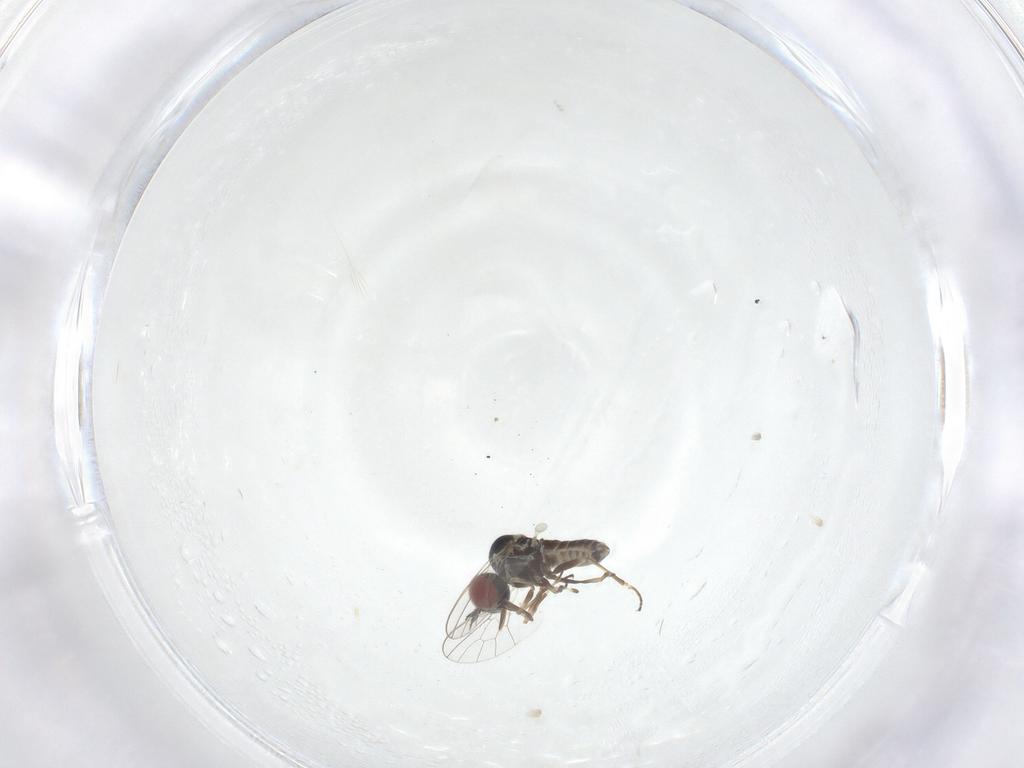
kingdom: Animalia
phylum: Arthropoda
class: Insecta
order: Diptera
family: Mythicomyiidae
